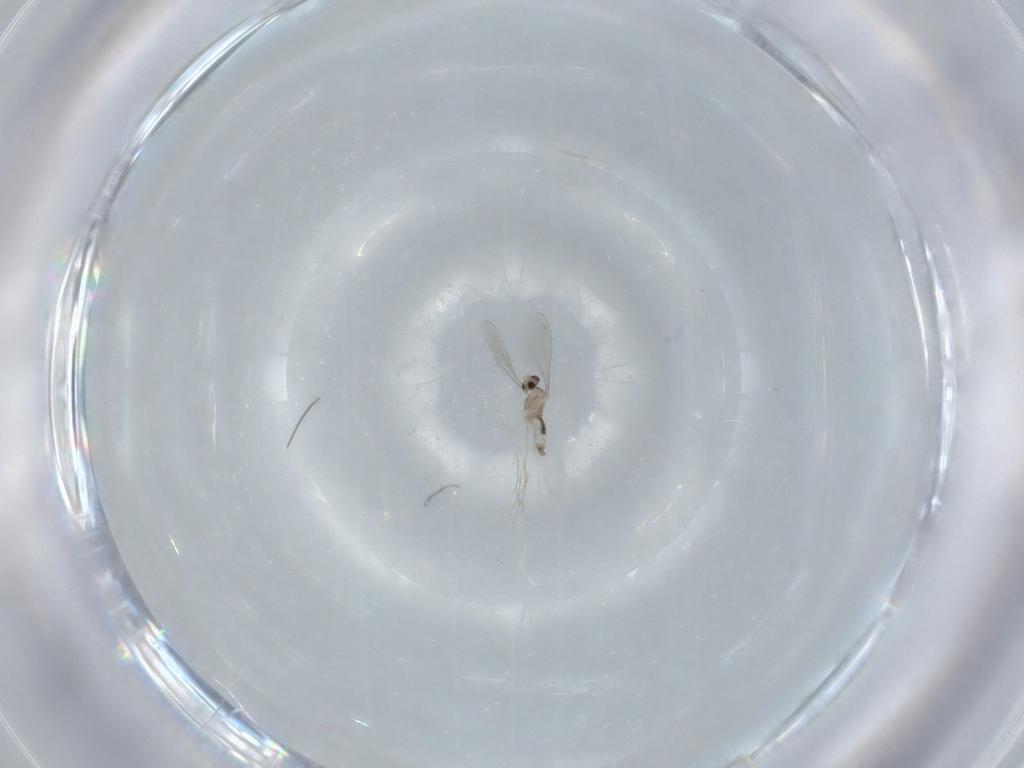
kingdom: Animalia
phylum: Arthropoda
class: Insecta
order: Diptera
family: Cecidomyiidae
